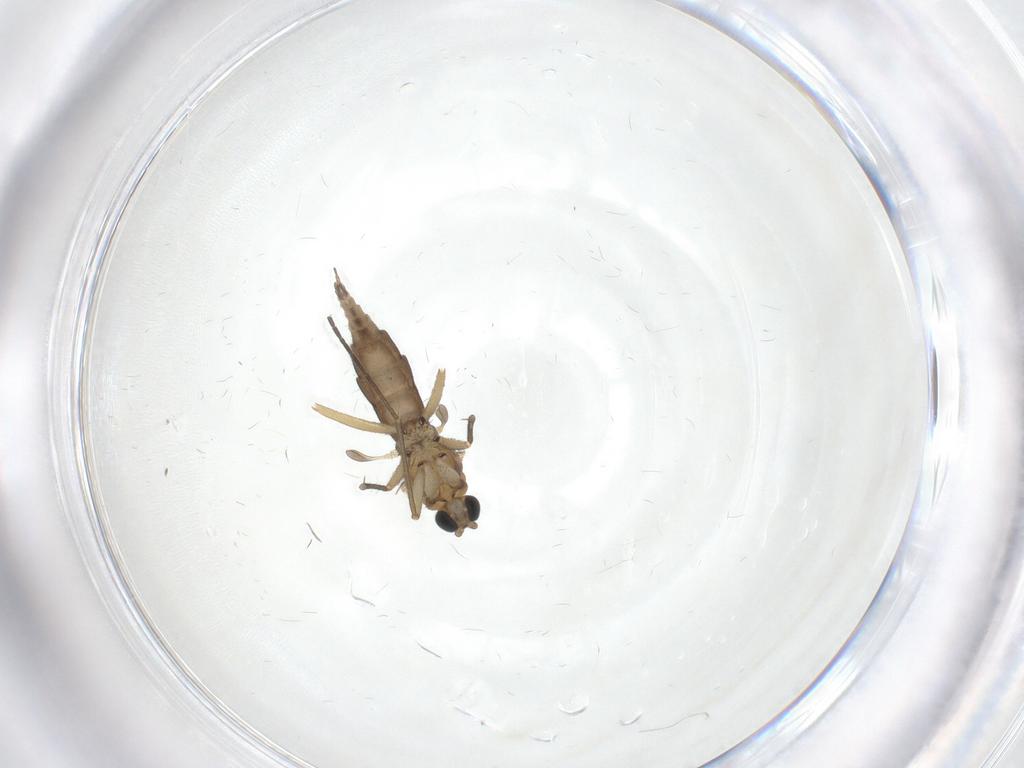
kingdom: Animalia
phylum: Arthropoda
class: Insecta
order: Diptera
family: Sciaridae
